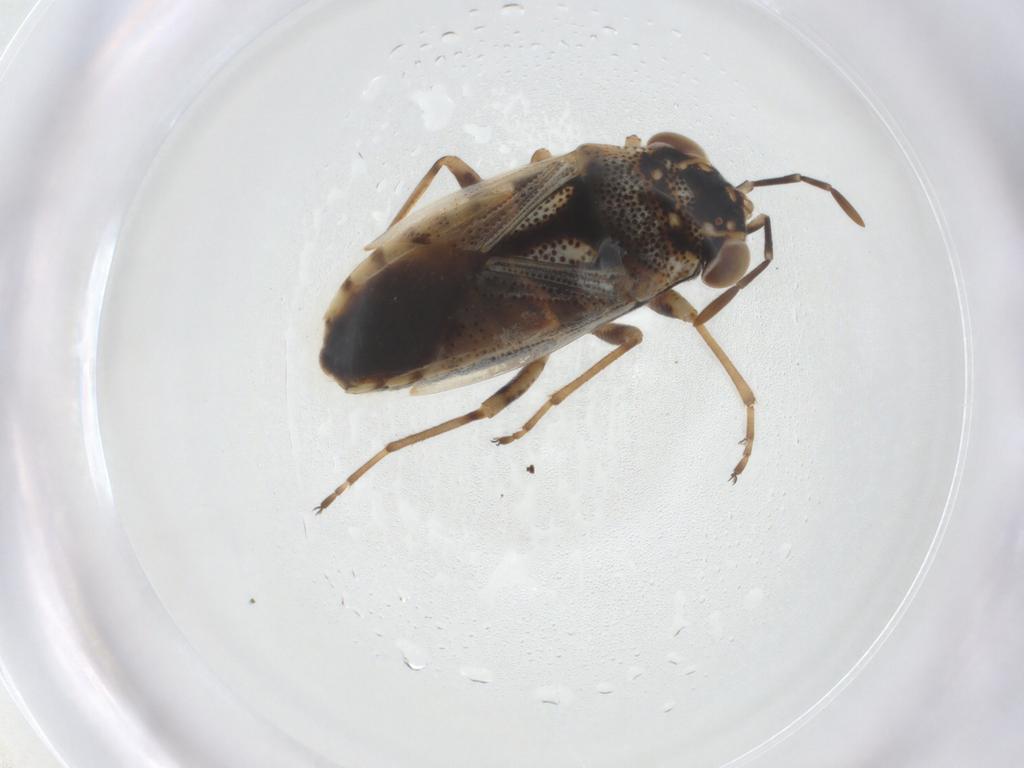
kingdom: Animalia
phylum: Arthropoda
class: Insecta
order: Hemiptera
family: Geocoridae
